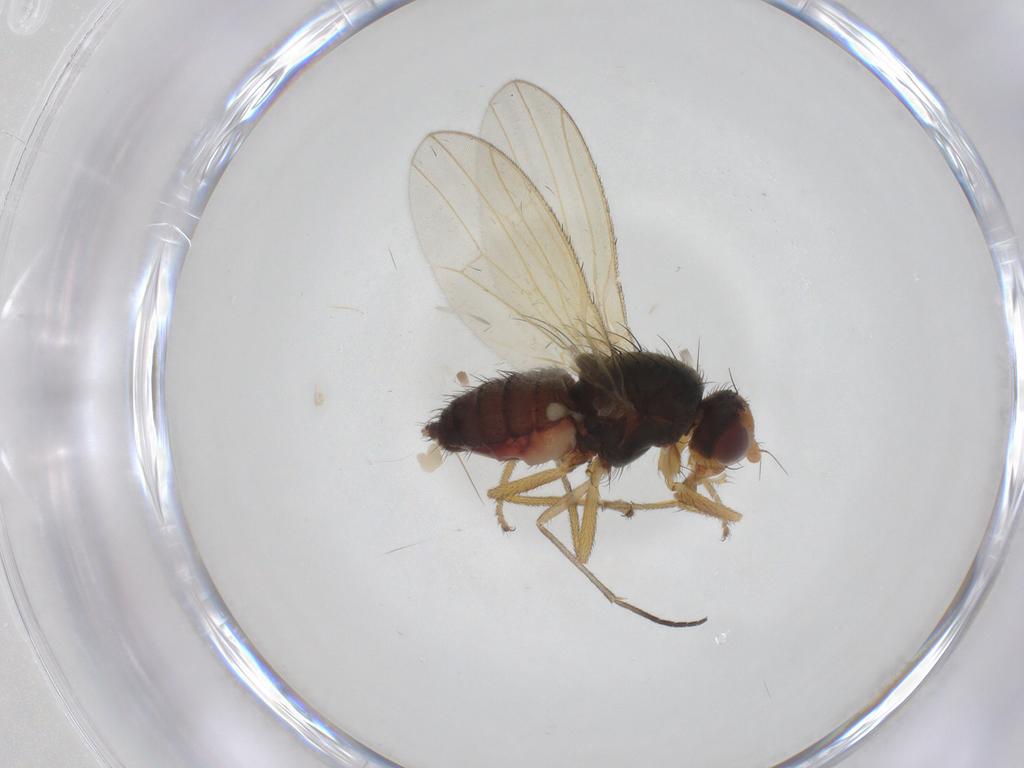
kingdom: Animalia
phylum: Arthropoda
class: Insecta
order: Diptera
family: Heleomyzidae
